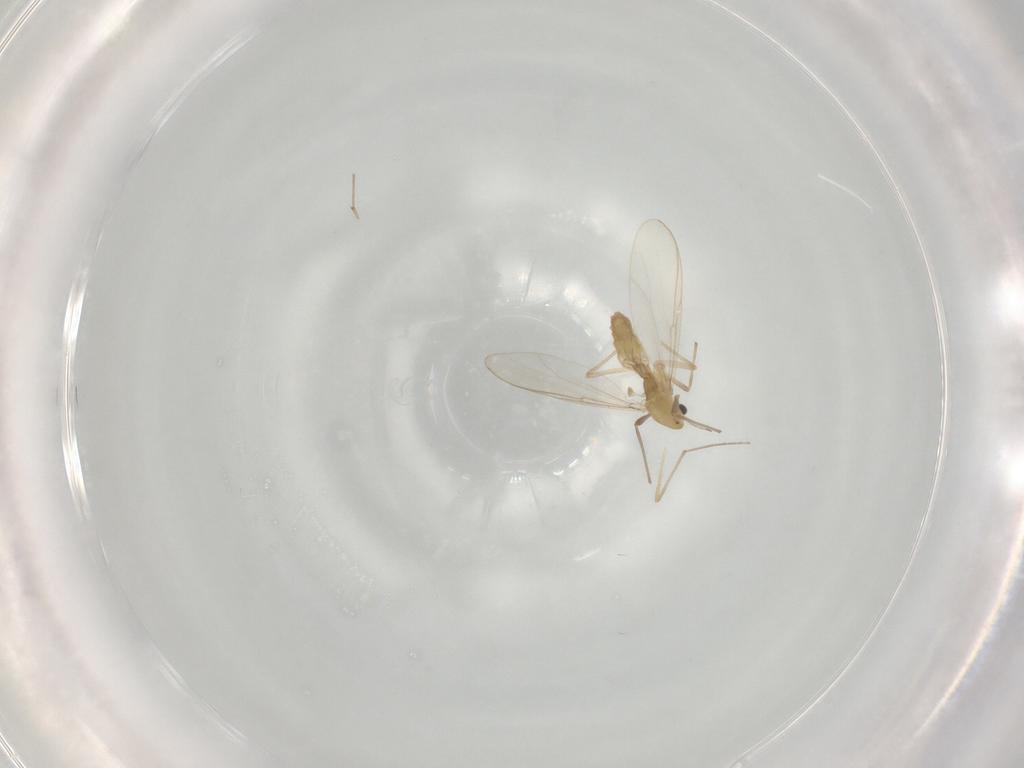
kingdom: Animalia
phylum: Arthropoda
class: Insecta
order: Diptera
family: Chironomidae
